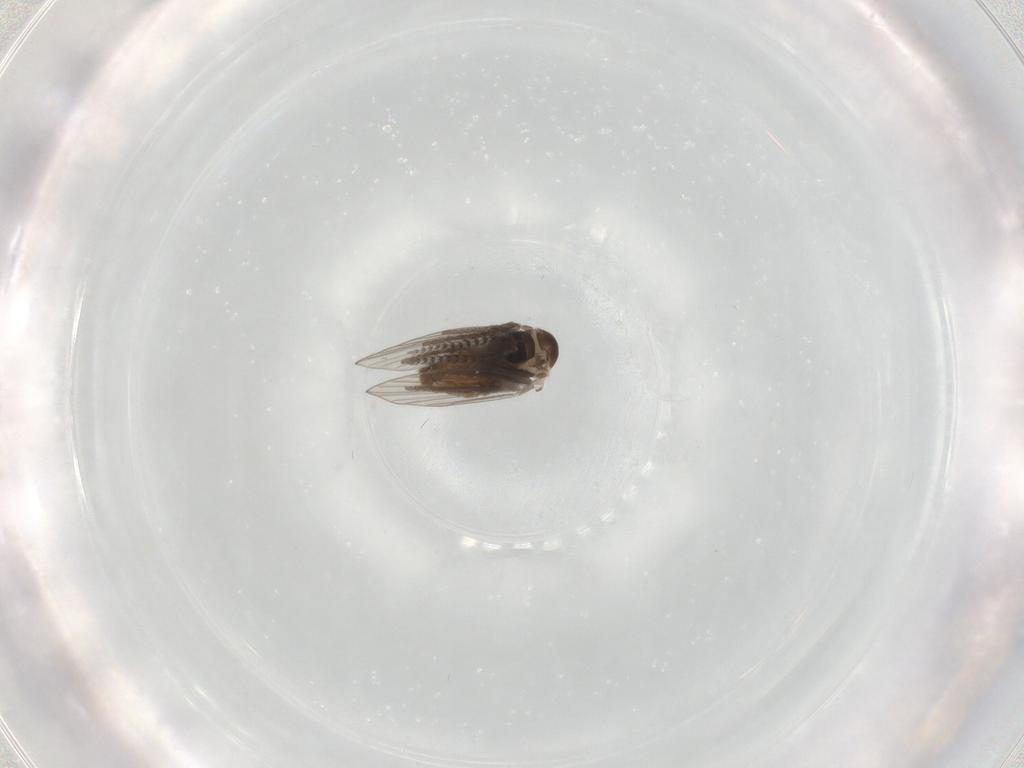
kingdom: Animalia
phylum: Arthropoda
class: Insecta
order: Diptera
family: Psychodidae
